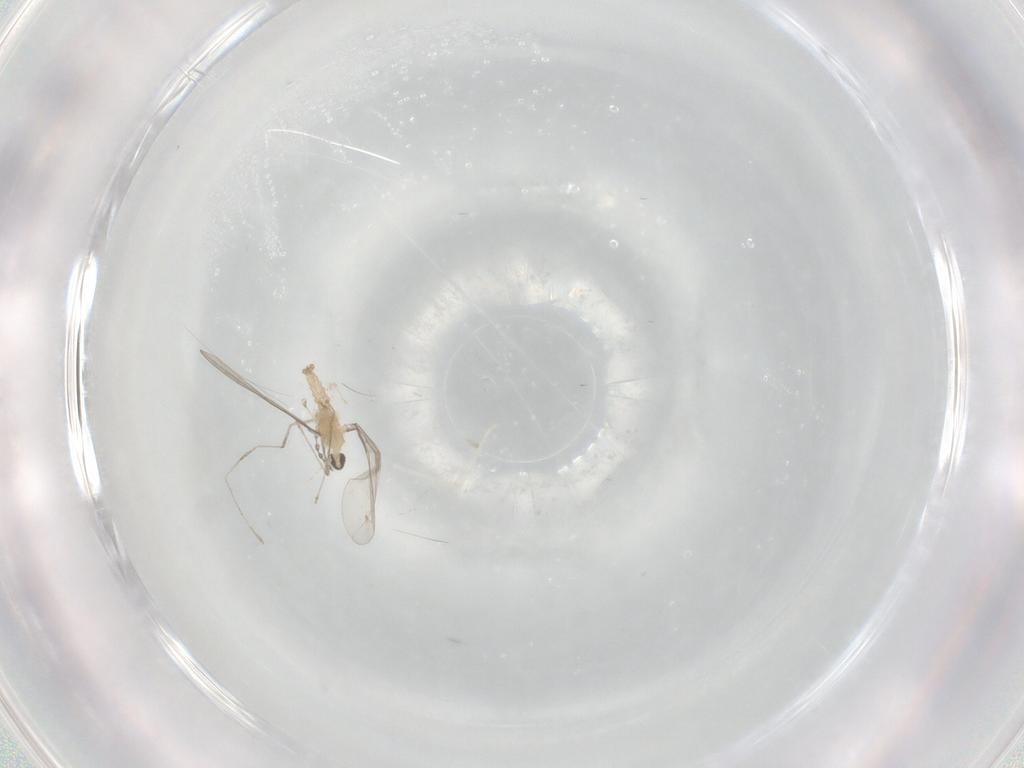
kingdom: Animalia
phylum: Arthropoda
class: Insecta
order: Diptera
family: Cecidomyiidae
